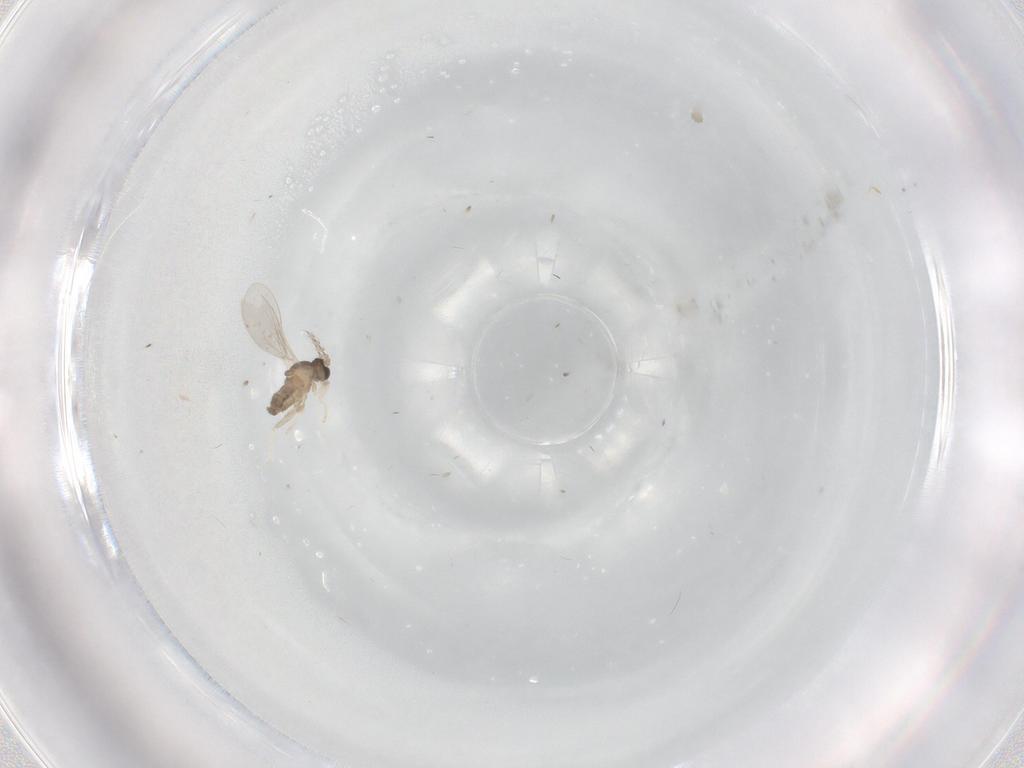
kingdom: Animalia
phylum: Arthropoda
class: Insecta
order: Diptera
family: Cecidomyiidae
